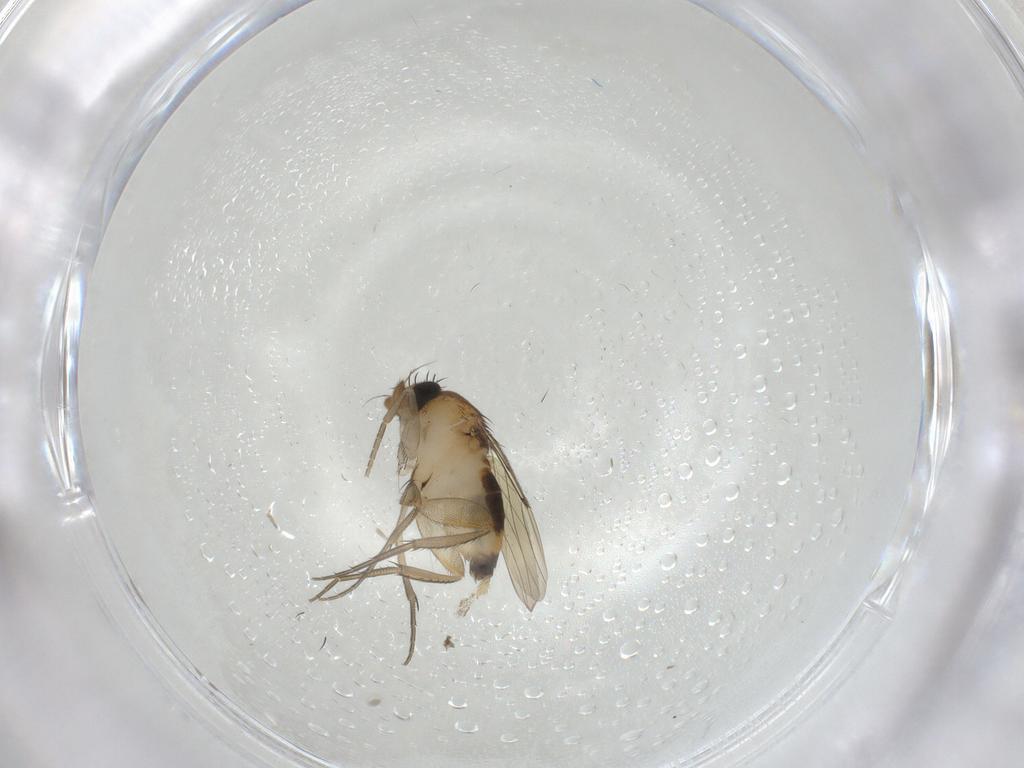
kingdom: Animalia
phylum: Arthropoda
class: Insecta
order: Diptera
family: Phoridae
